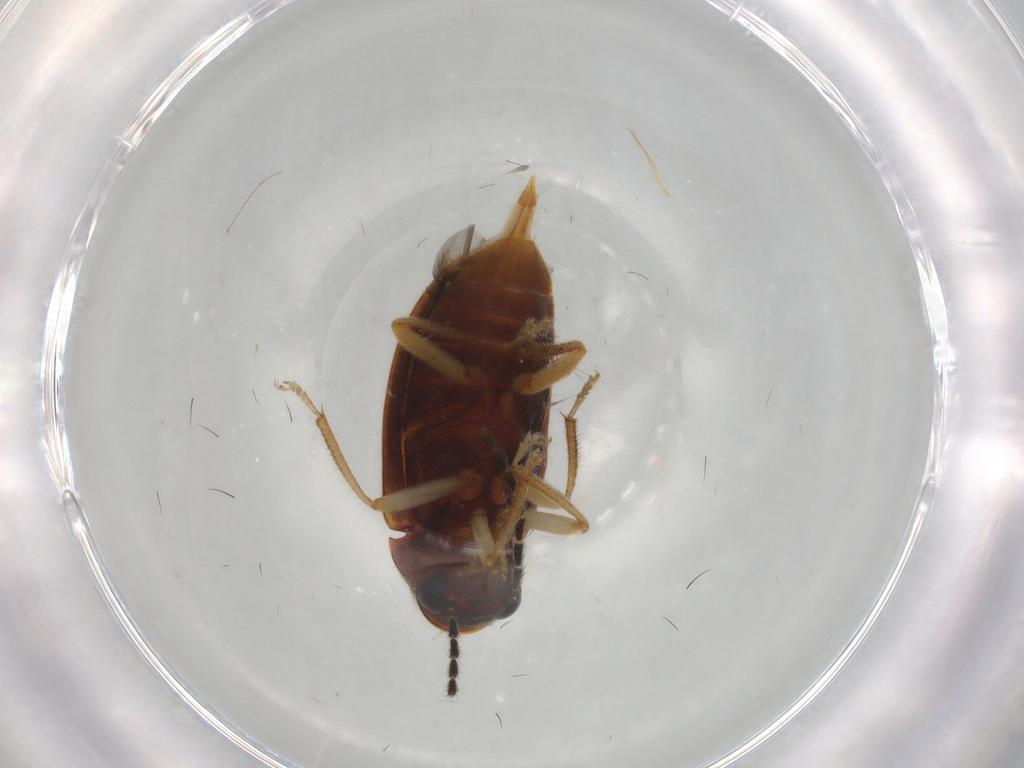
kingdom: Animalia
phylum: Arthropoda
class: Insecta
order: Coleoptera
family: Ptilodactylidae
